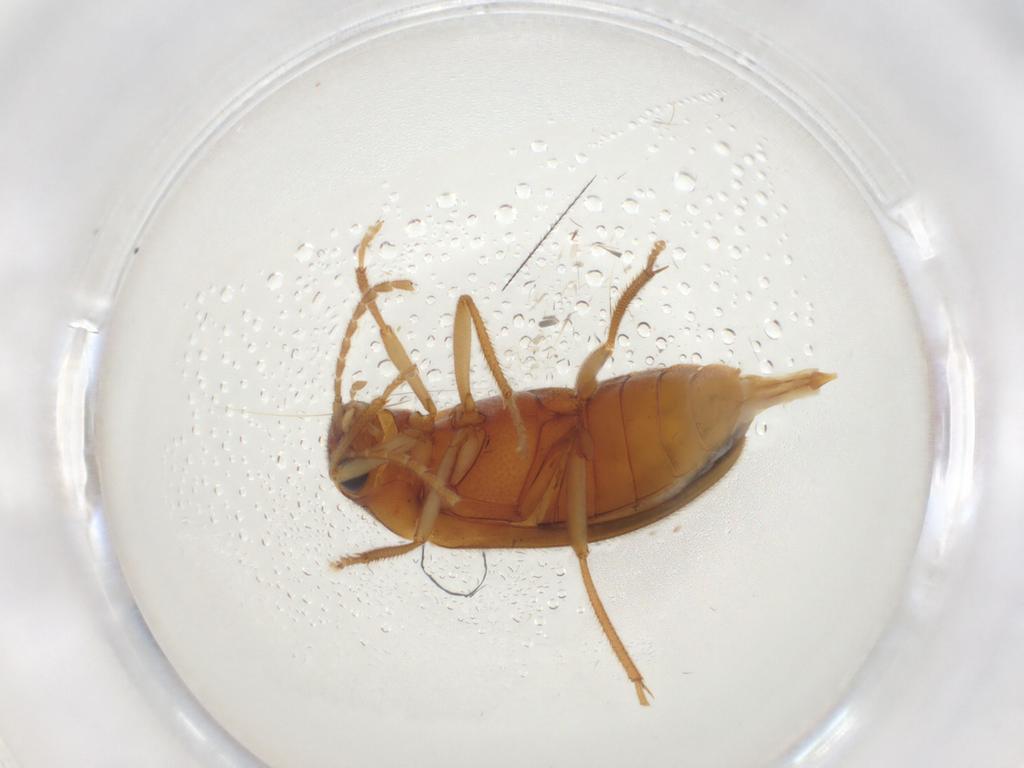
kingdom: Animalia
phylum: Arthropoda
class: Insecta
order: Coleoptera
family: Ptilodactylidae
